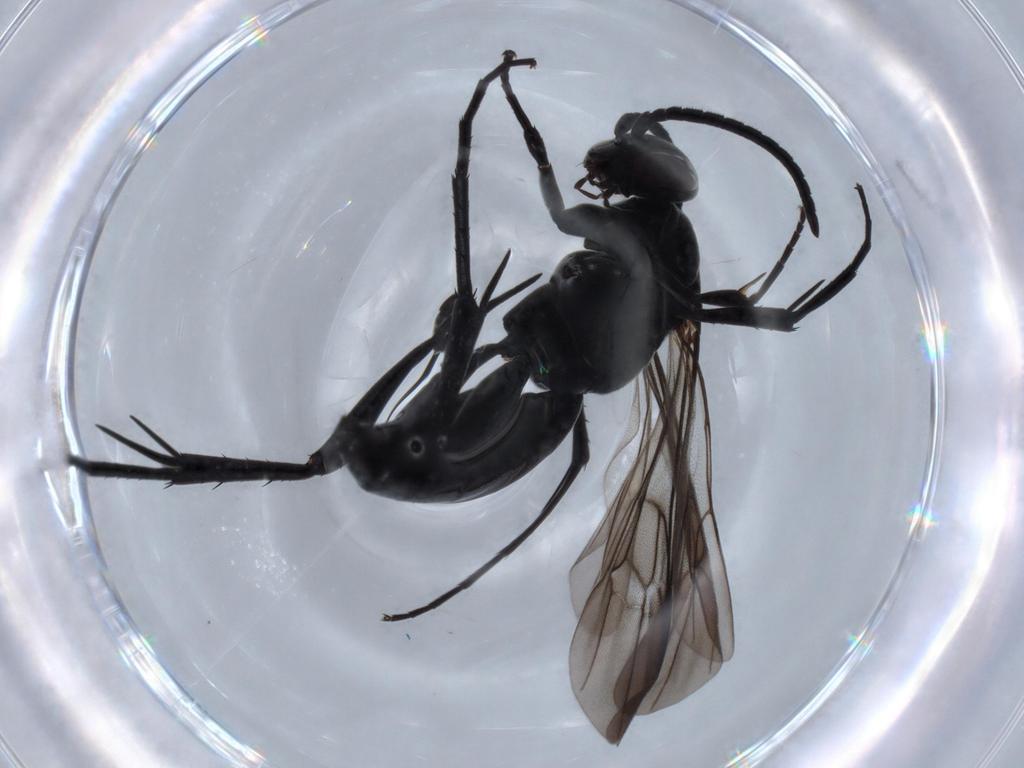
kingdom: Animalia
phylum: Arthropoda
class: Insecta
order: Hymenoptera
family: Pompilidae
